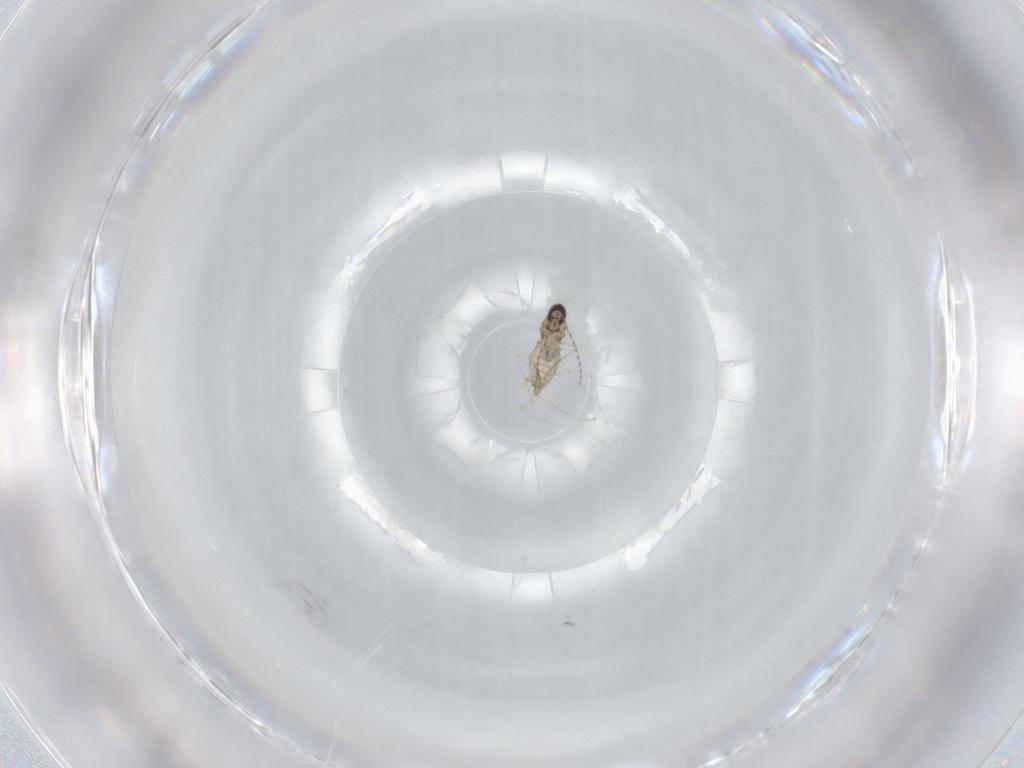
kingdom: Animalia
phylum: Arthropoda
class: Insecta
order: Diptera
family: Cecidomyiidae
